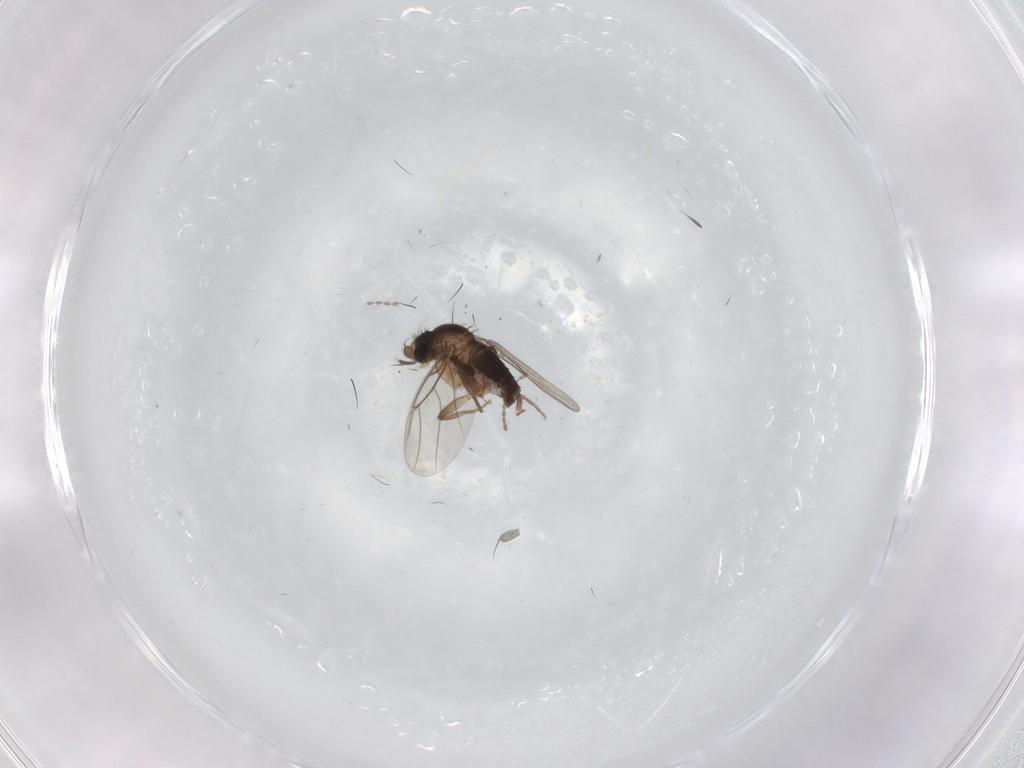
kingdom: Animalia
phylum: Arthropoda
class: Insecta
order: Diptera
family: Cecidomyiidae
